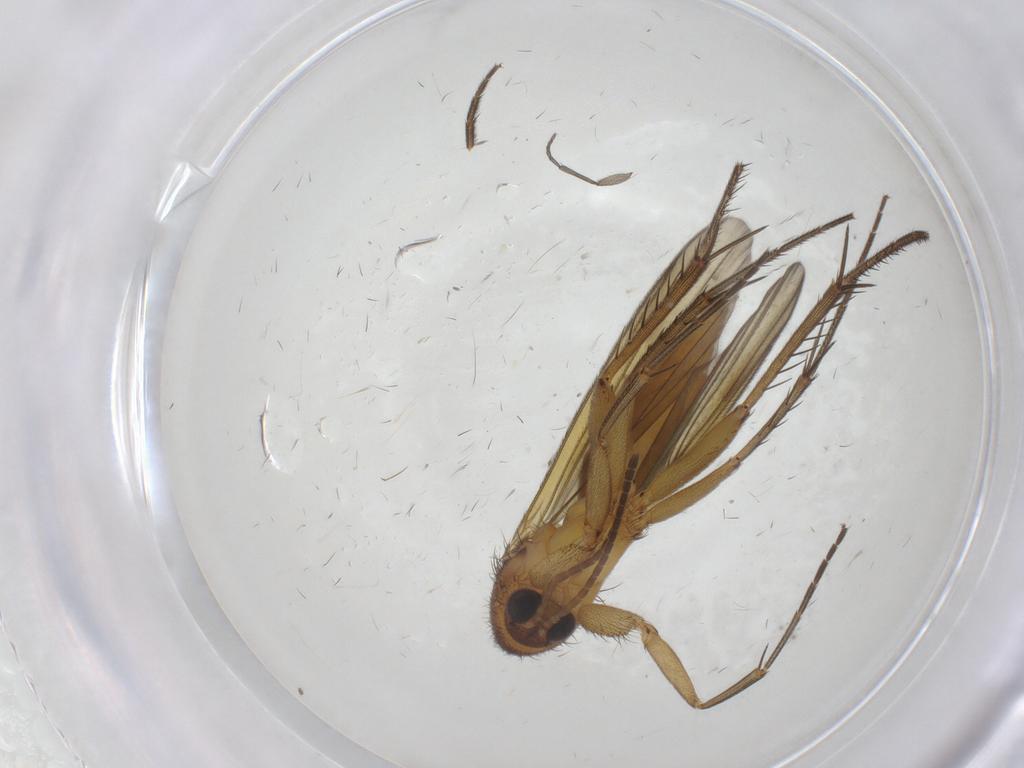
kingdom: Animalia
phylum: Arthropoda
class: Insecta
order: Diptera
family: Mycetophilidae
